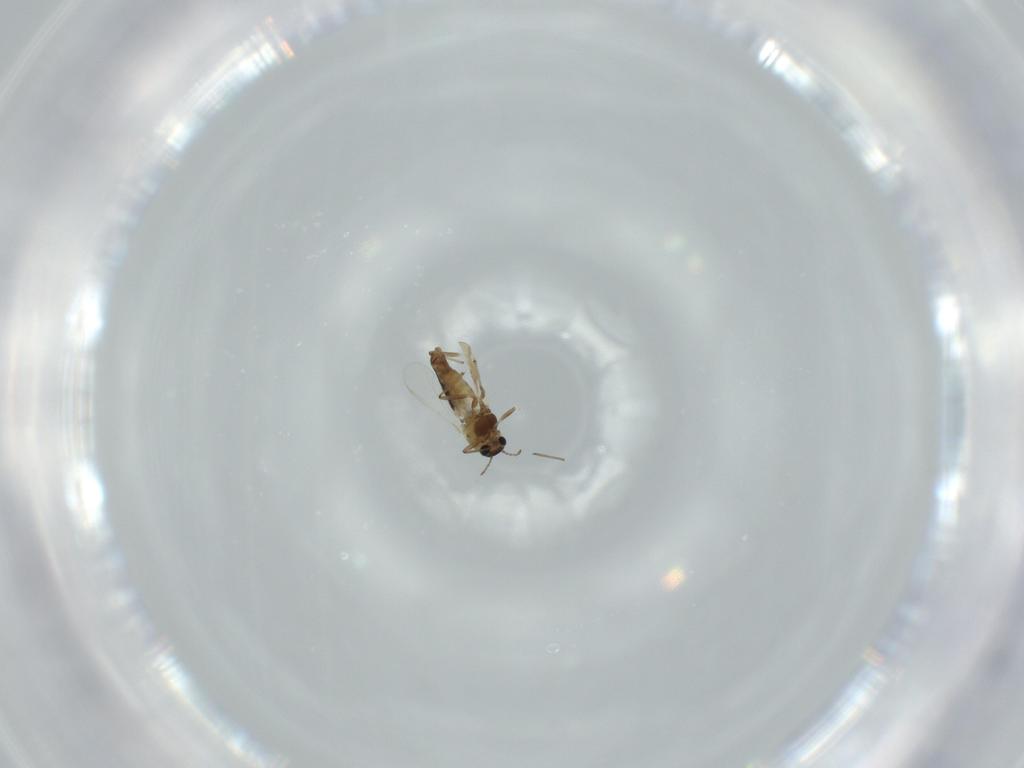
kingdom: Animalia
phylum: Arthropoda
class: Insecta
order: Diptera
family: Chironomidae
